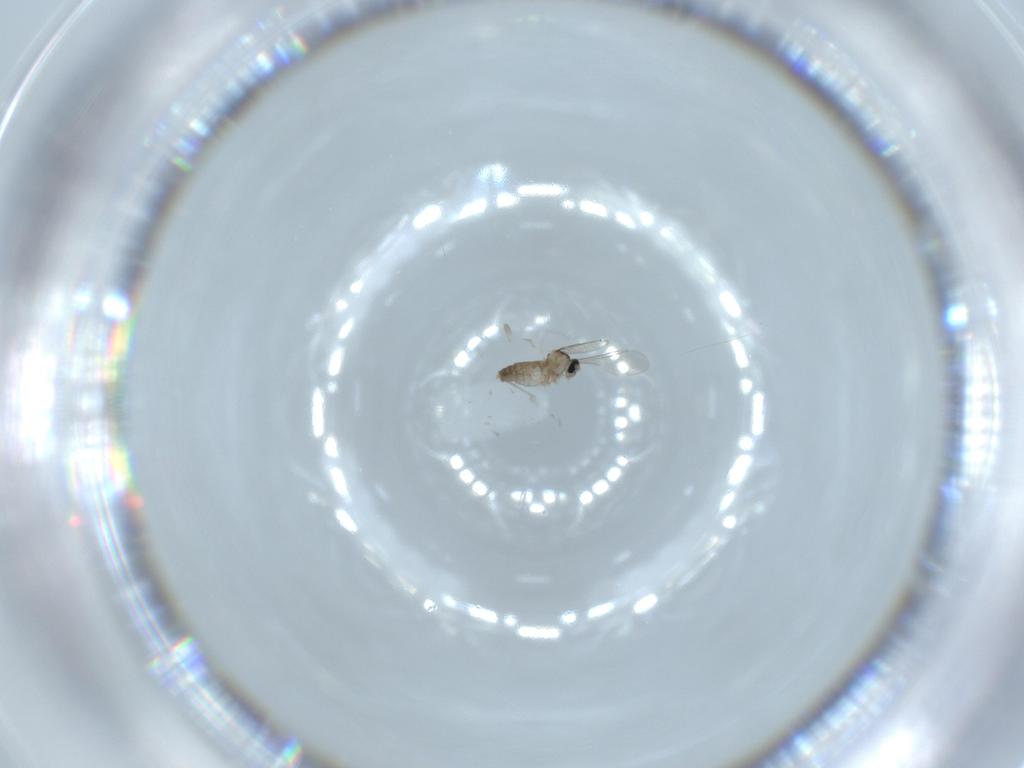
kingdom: Animalia
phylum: Arthropoda
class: Insecta
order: Diptera
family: Cecidomyiidae
